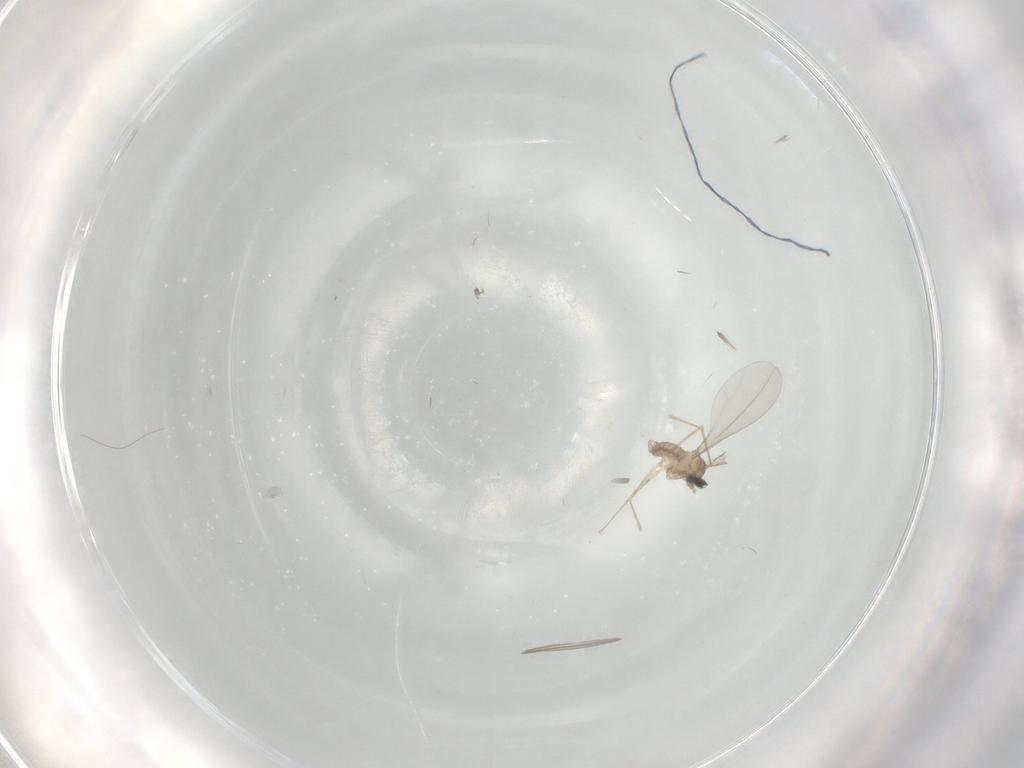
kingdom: Animalia
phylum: Arthropoda
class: Insecta
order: Diptera
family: Cecidomyiidae
